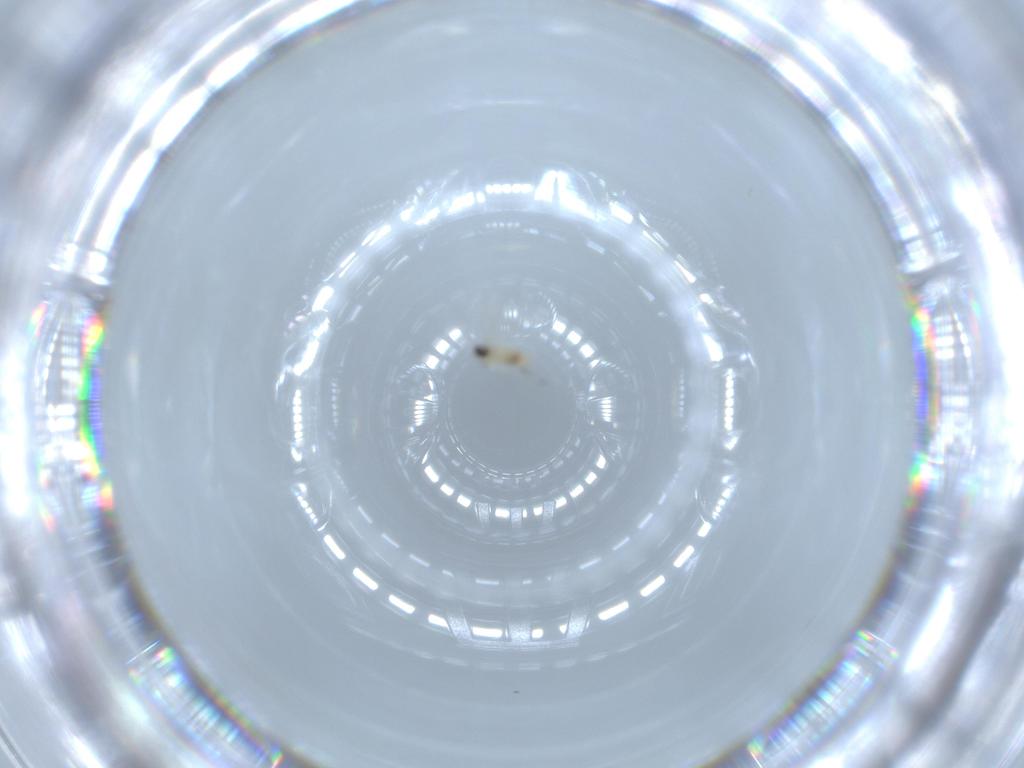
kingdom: Animalia
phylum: Arthropoda
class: Insecta
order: Diptera
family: Cecidomyiidae
